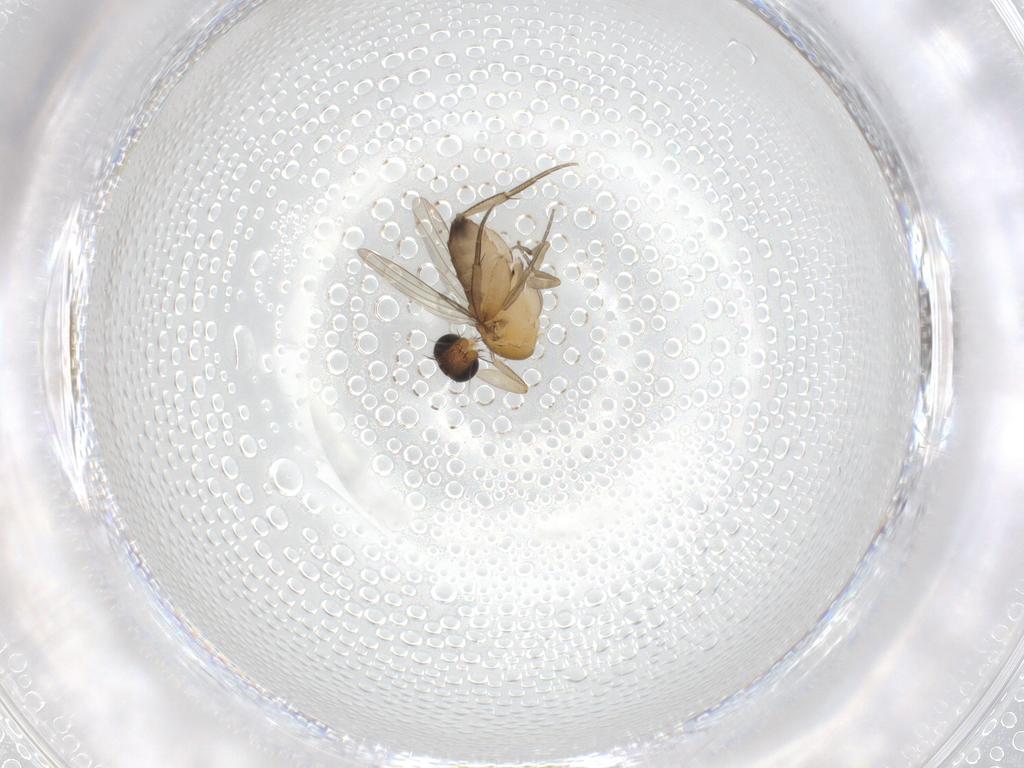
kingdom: Animalia
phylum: Arthropoda
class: Insecta
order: Diptera
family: Phoridae
